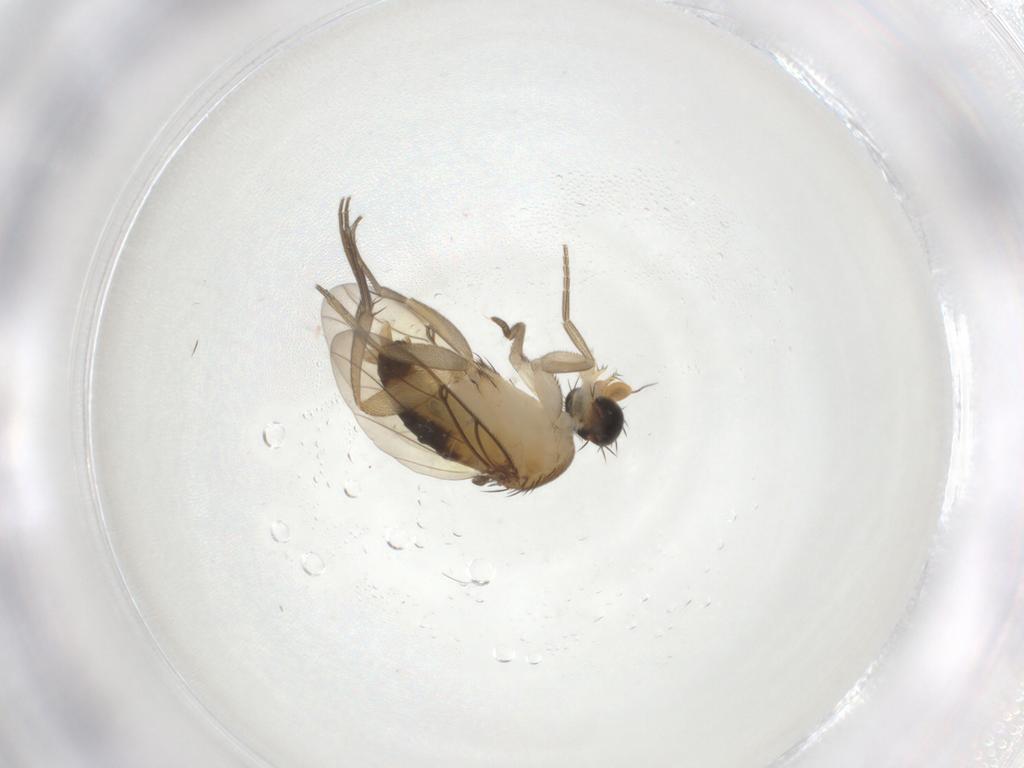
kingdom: Animalia
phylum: Arthropoda
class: Insecta
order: Diptera
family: Phoridae
